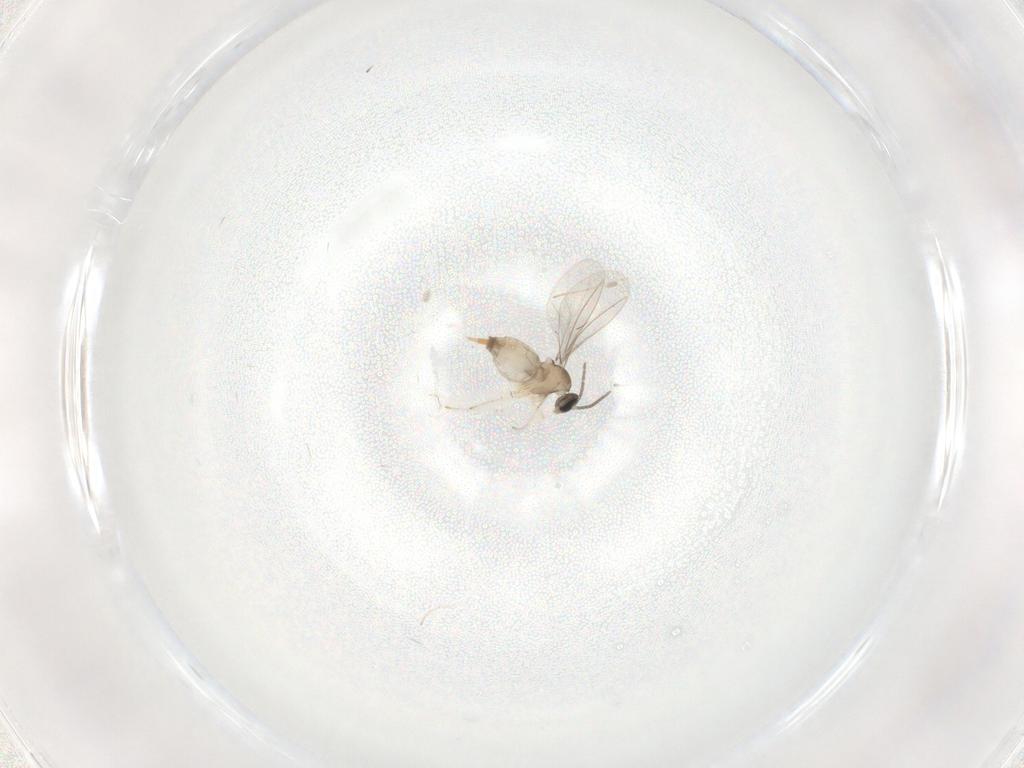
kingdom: Animalia
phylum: Arthropoda
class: Insecta
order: Diptera
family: Cecidomyiidae
